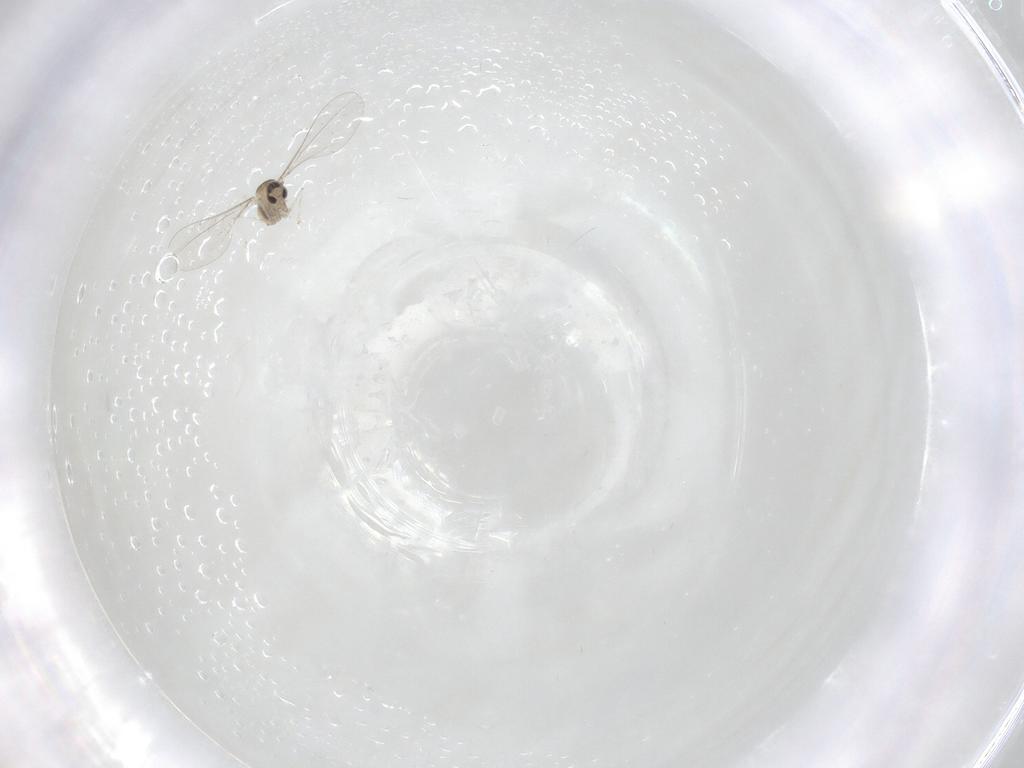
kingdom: Animalia
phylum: Arthropoda
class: Insecta
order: Diptera
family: Cecidomyiidae
